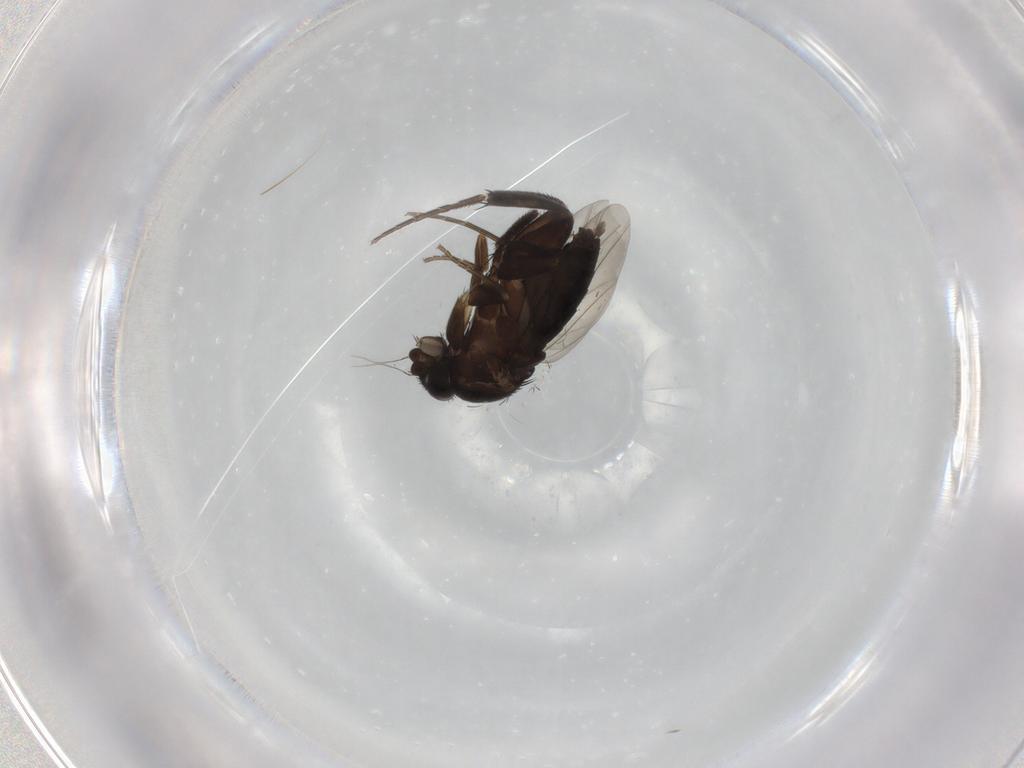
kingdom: Animalia
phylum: Arthropoda
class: Insecta
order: Diptera
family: Phoridae
